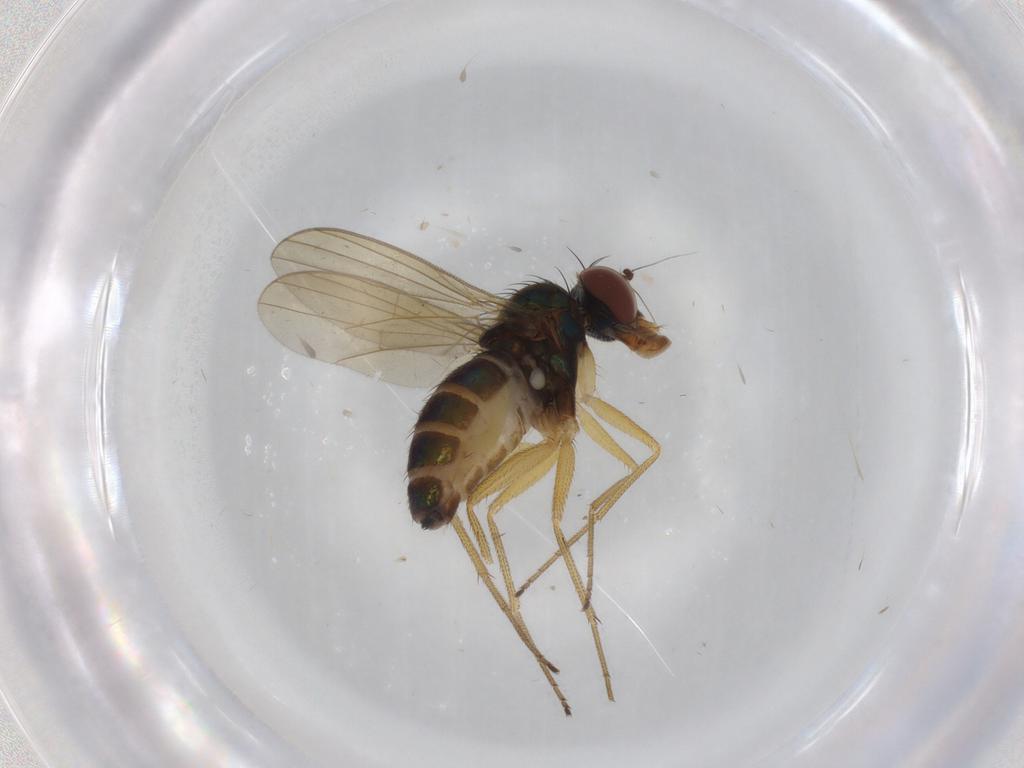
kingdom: Animalia
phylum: Arthropoda
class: Insecta
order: Diptera
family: Dolichopodidae
